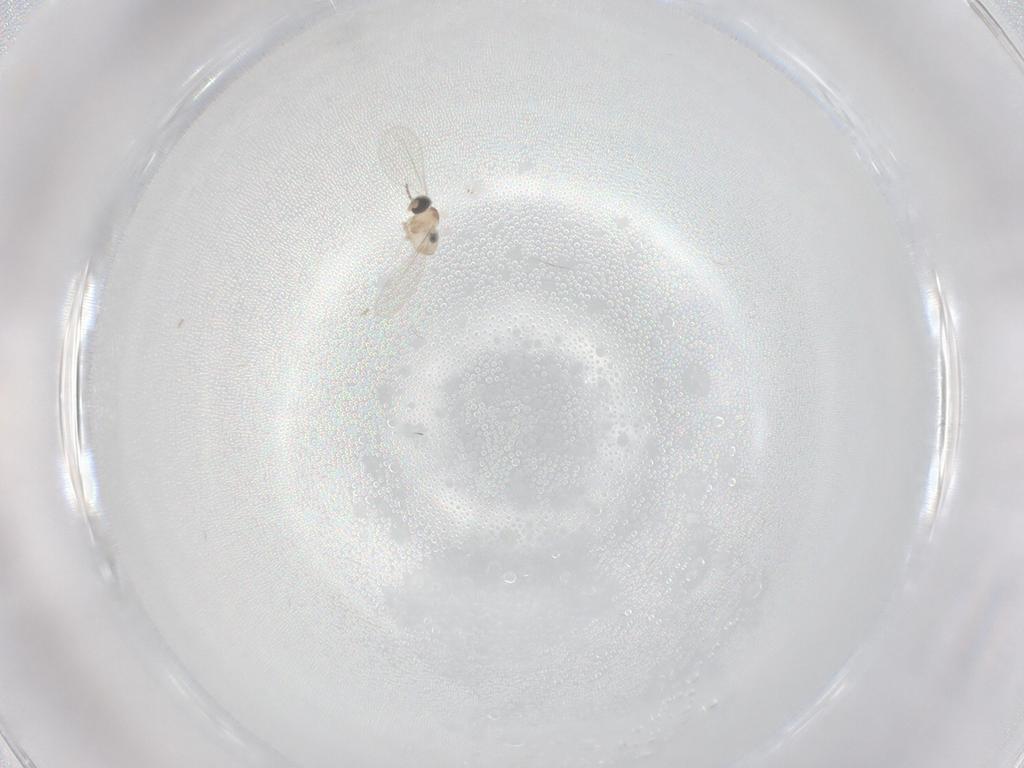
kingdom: Animalia
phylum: Arthropoda
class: Insecta
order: Diptera
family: Cecidomyiidae
